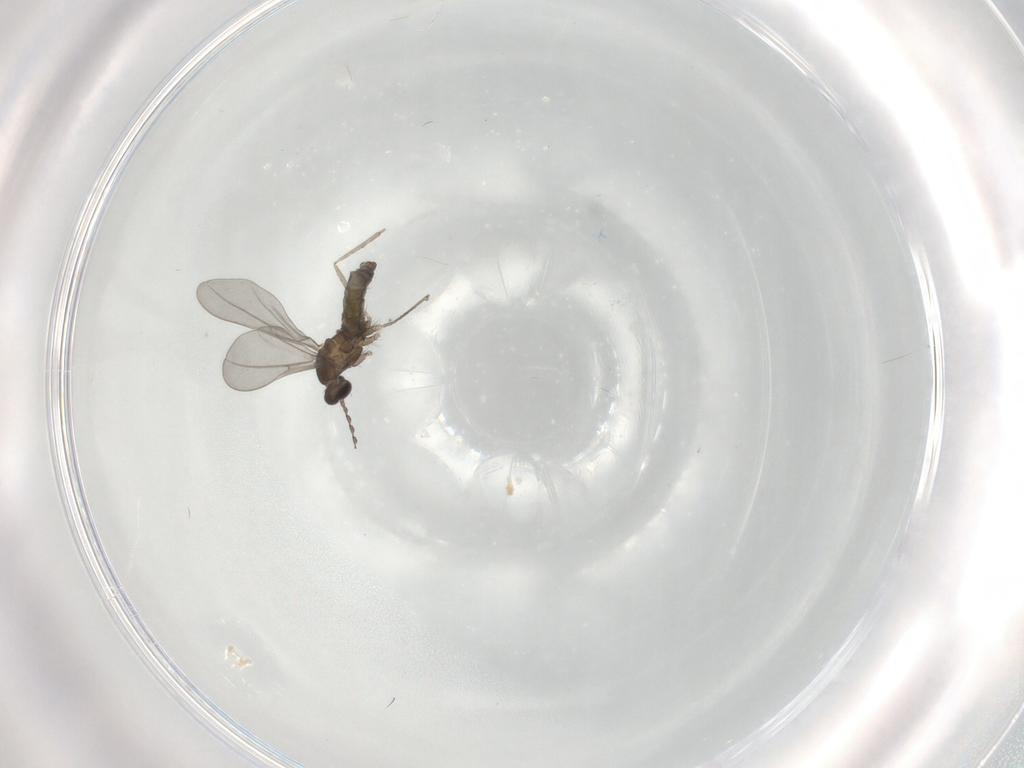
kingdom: Animalia
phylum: Arthropoda
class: Insecta
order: Diptera
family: Cecidomyiidae
